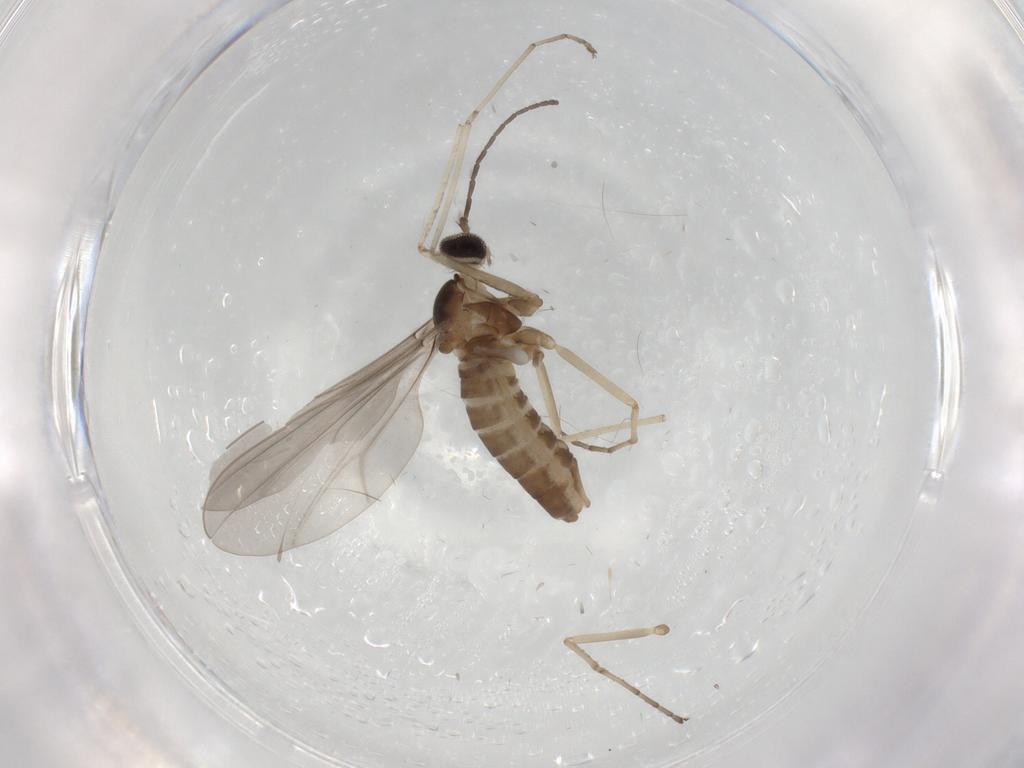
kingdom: Animalia
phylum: Arthropoda
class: Insecta
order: Diptera
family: Cecidomyiidae
